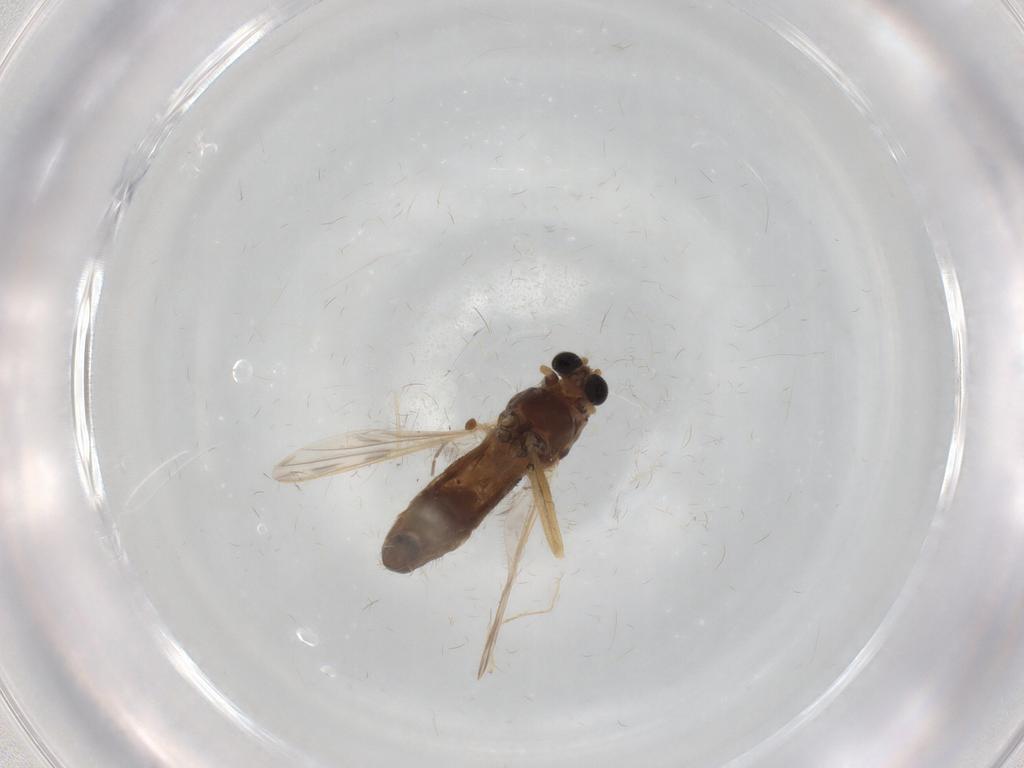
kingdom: Animalia
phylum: Arthropoda
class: Insecta
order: Diptera
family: Chironomidae
